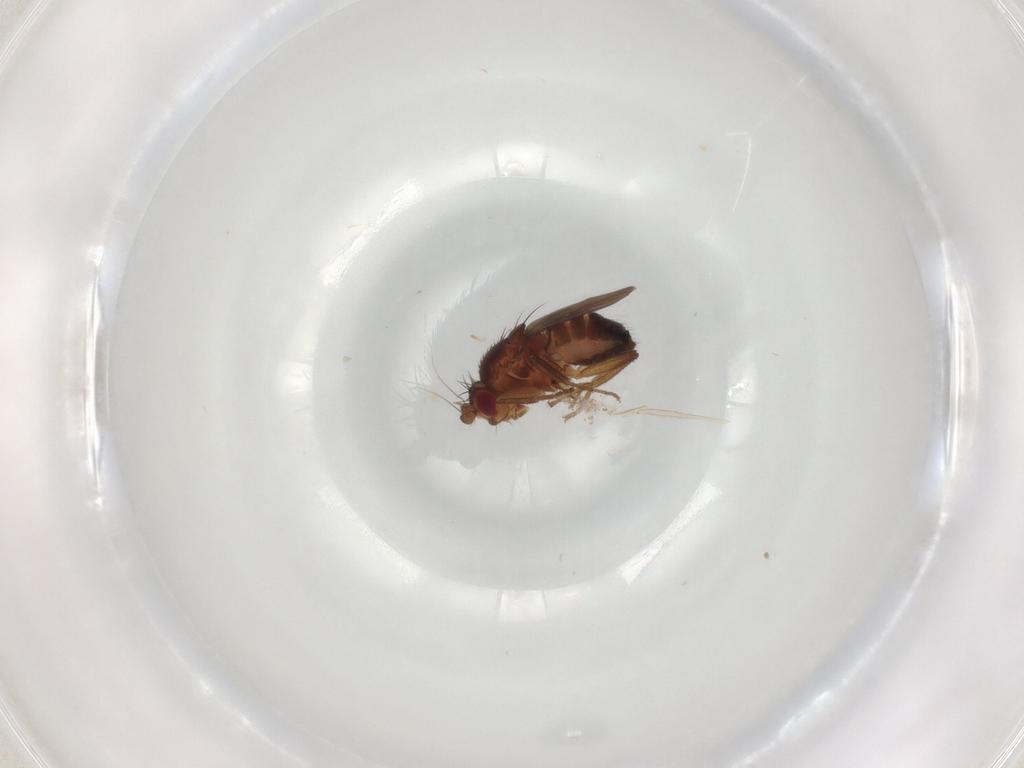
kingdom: Animalia
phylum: Arthropoda
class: Insecta
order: Diptera
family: Sphaeroceridae
